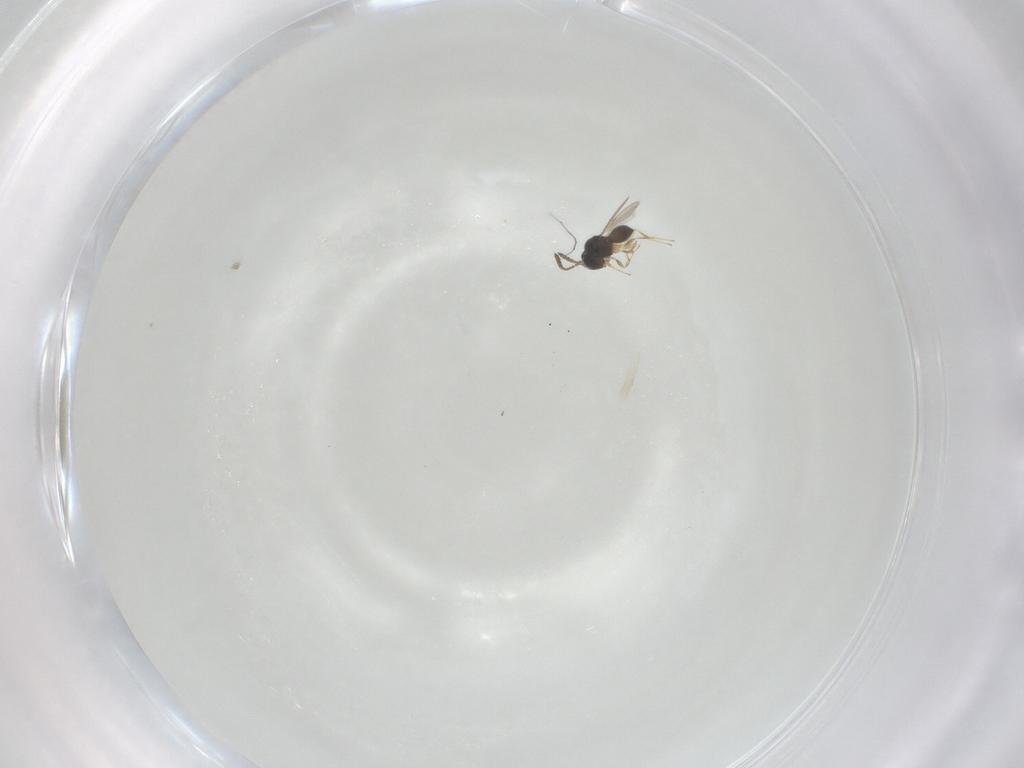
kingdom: Animalia
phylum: Arthropoda
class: Insecta
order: Hymenoptera
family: Scelionidae
